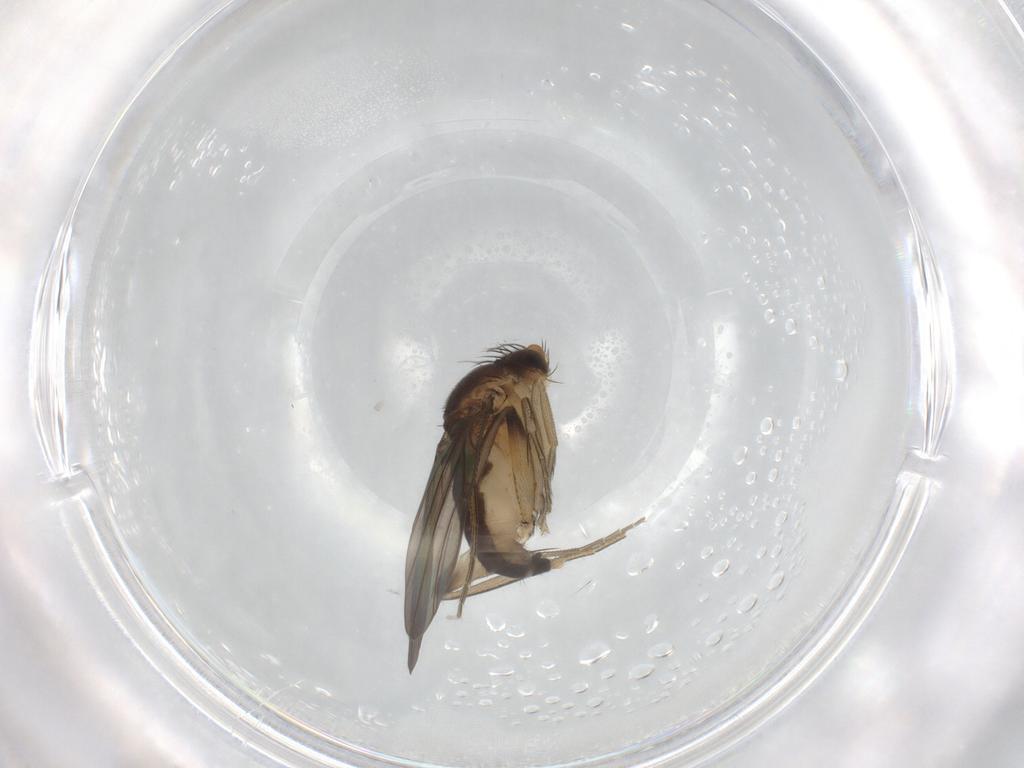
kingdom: Animalia
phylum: Arthropoda
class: Insecta
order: Diptera
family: Phoridae
